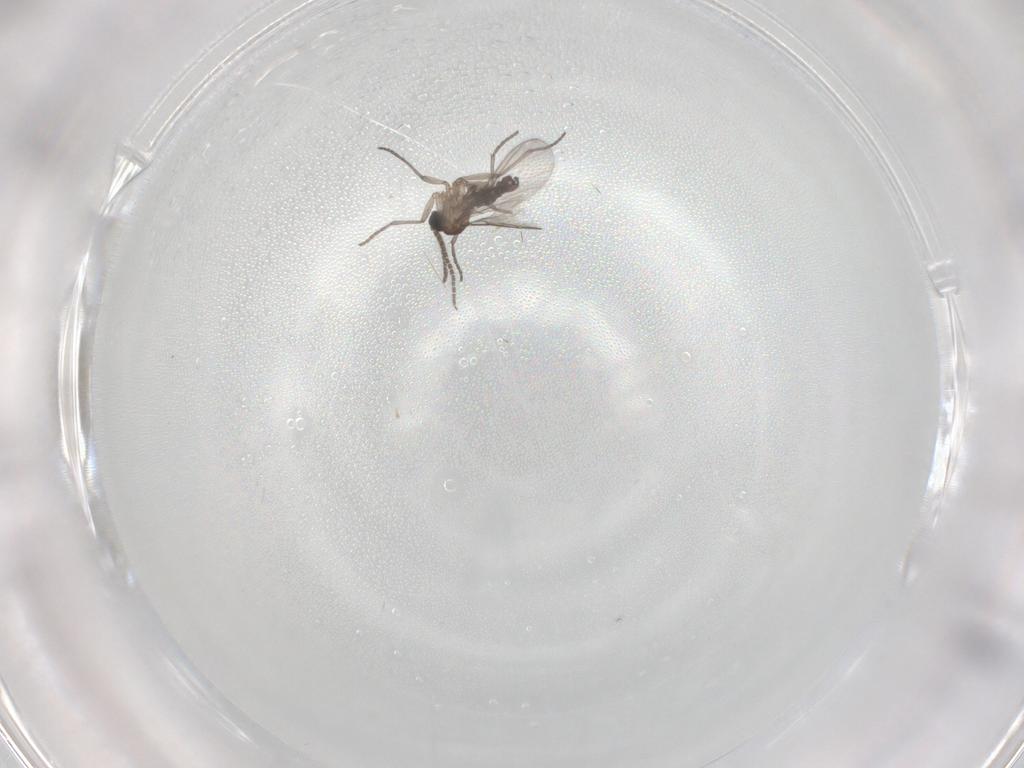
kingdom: Animalia
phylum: Arthropoda
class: Insecta
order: Diptera
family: Sciaridae
